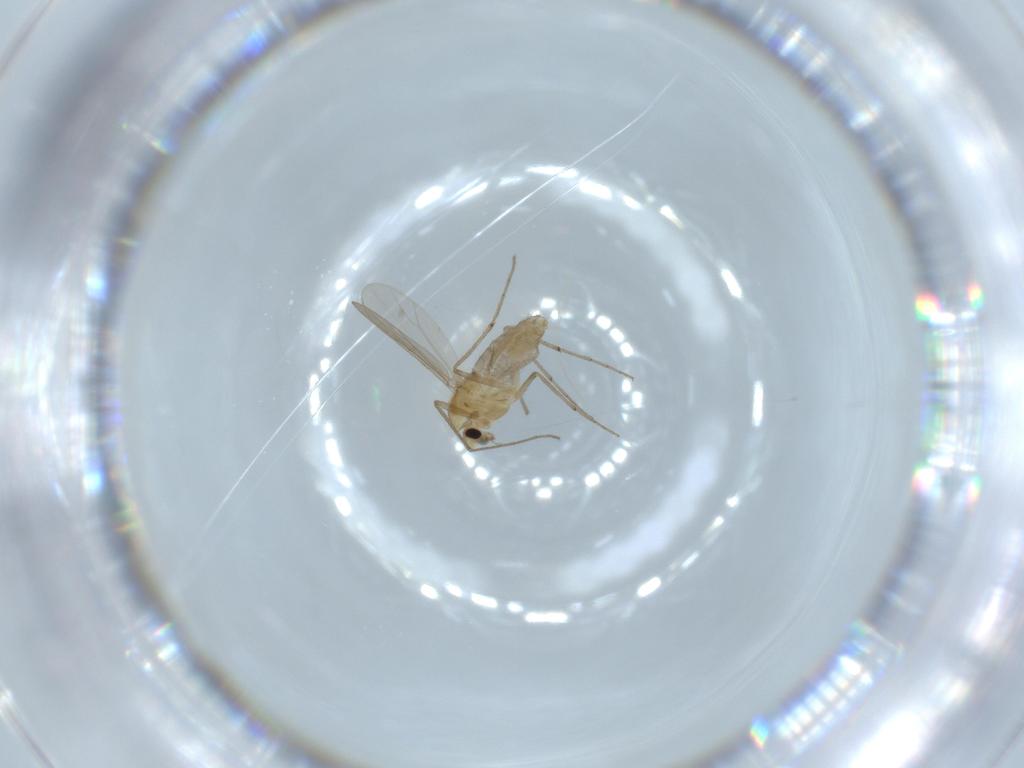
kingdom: Animalia
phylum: Arthropoda
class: Insecta
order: Diptera
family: Chironomidae
